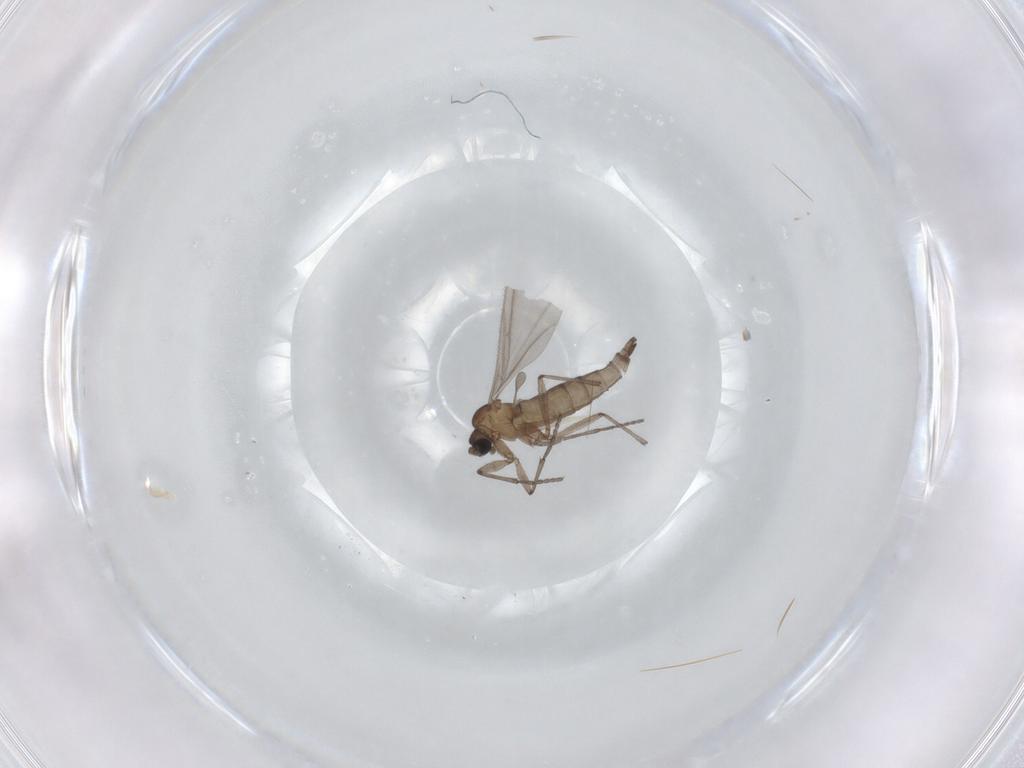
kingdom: Animalia
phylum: Arthropoda
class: Insecta
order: Diptera
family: Sciaridae
